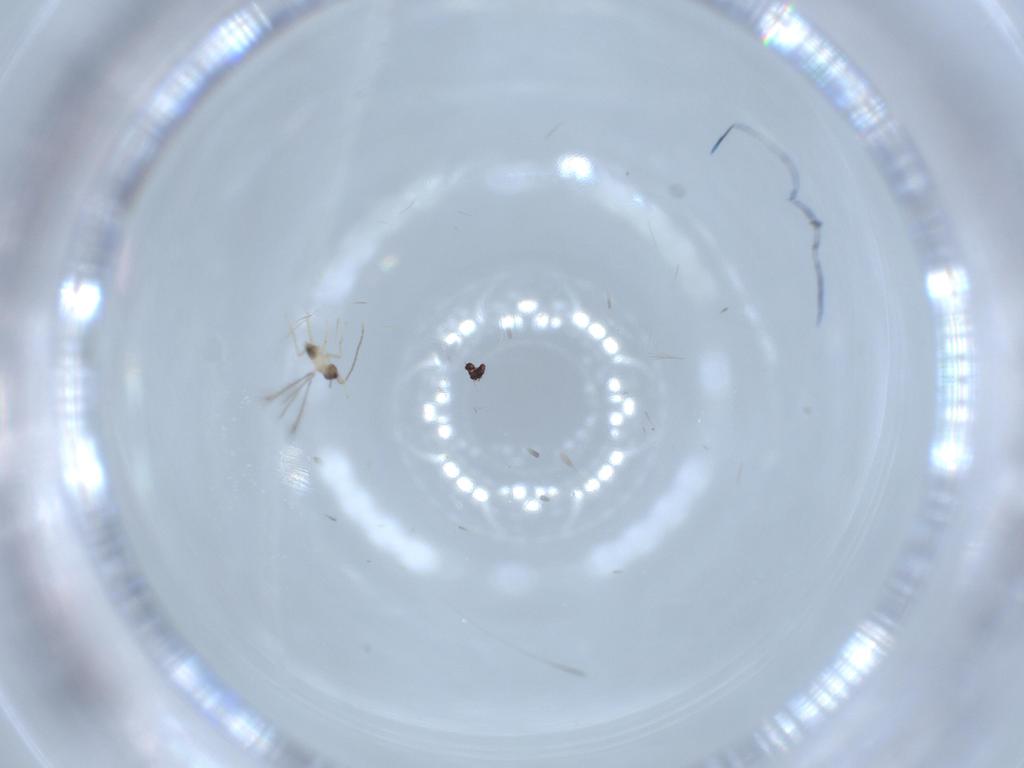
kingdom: Animalia
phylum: Arthropoda
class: Insecta
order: Hymenoptera
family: Mymaridae
